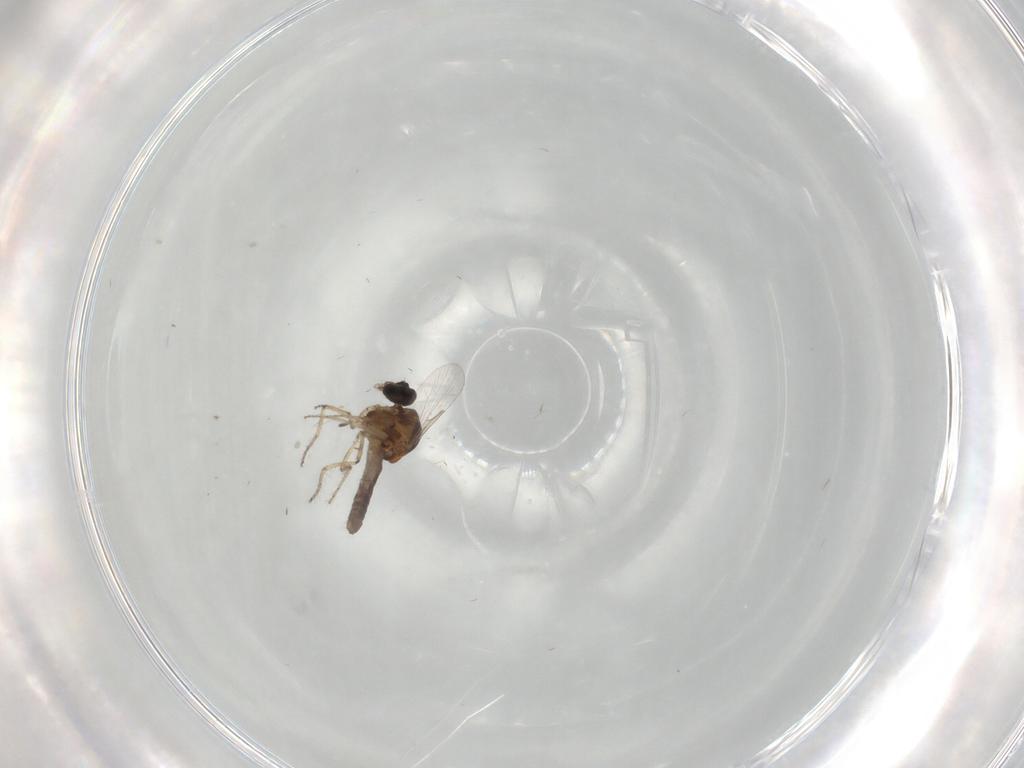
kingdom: Animalia
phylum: Arthropoda
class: Insecta
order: Diptera
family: Ceratopogonidae
